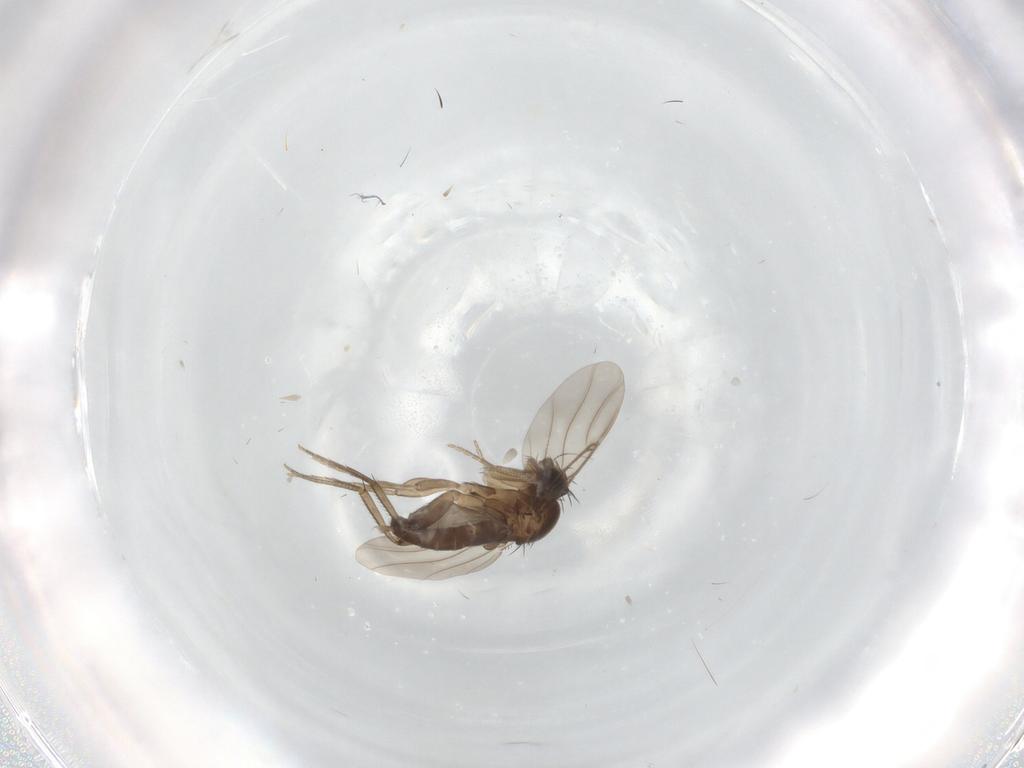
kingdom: Animalia
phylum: Arthropoda
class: Insecta
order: Diptera
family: Phoridae
